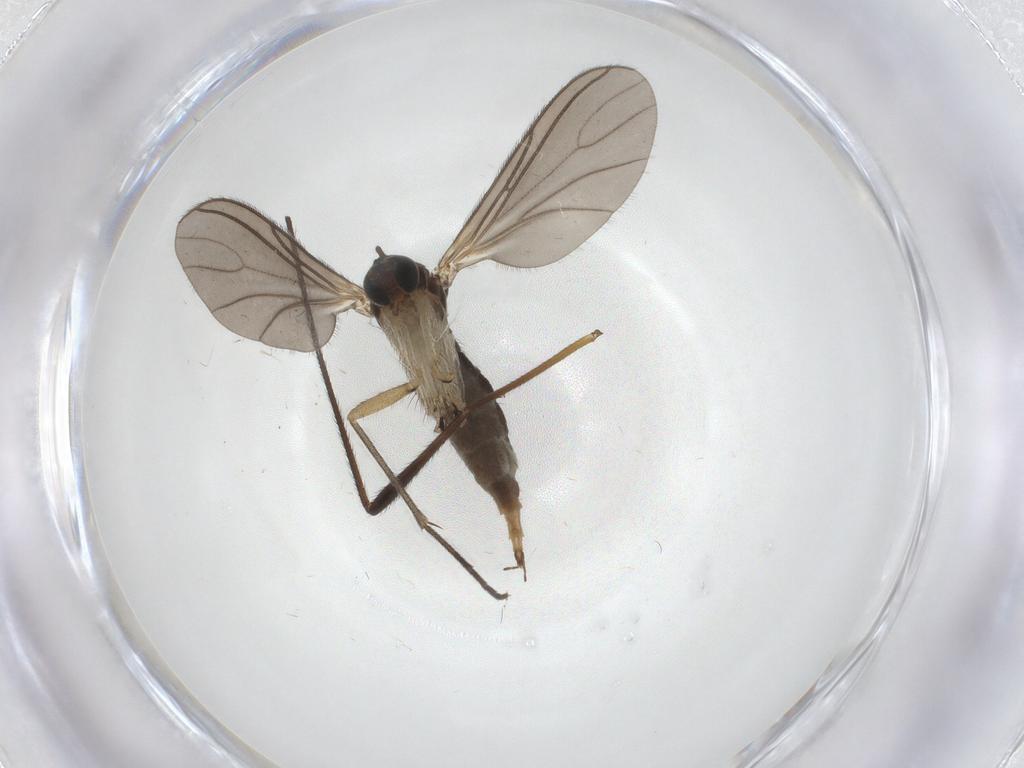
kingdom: Animalia
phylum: Arthropoda
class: Insecta
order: Diptera
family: Limoniidae
